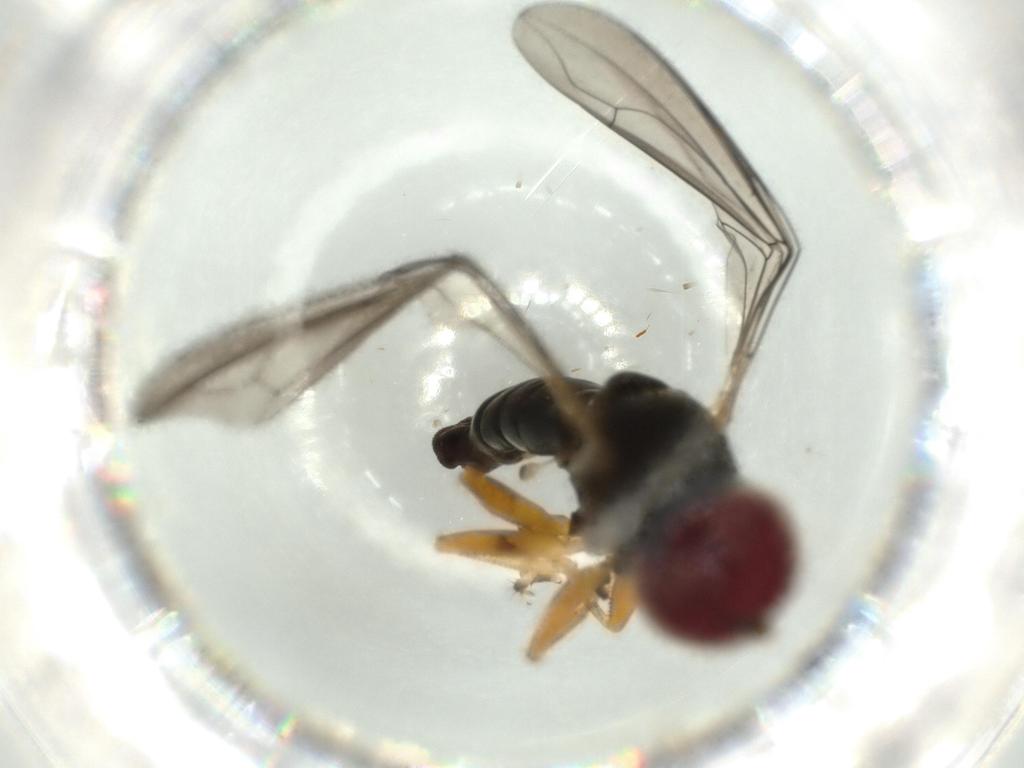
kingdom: Animalia
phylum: Arthropoda
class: Insecta
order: Diptera
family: Pipunculidae
